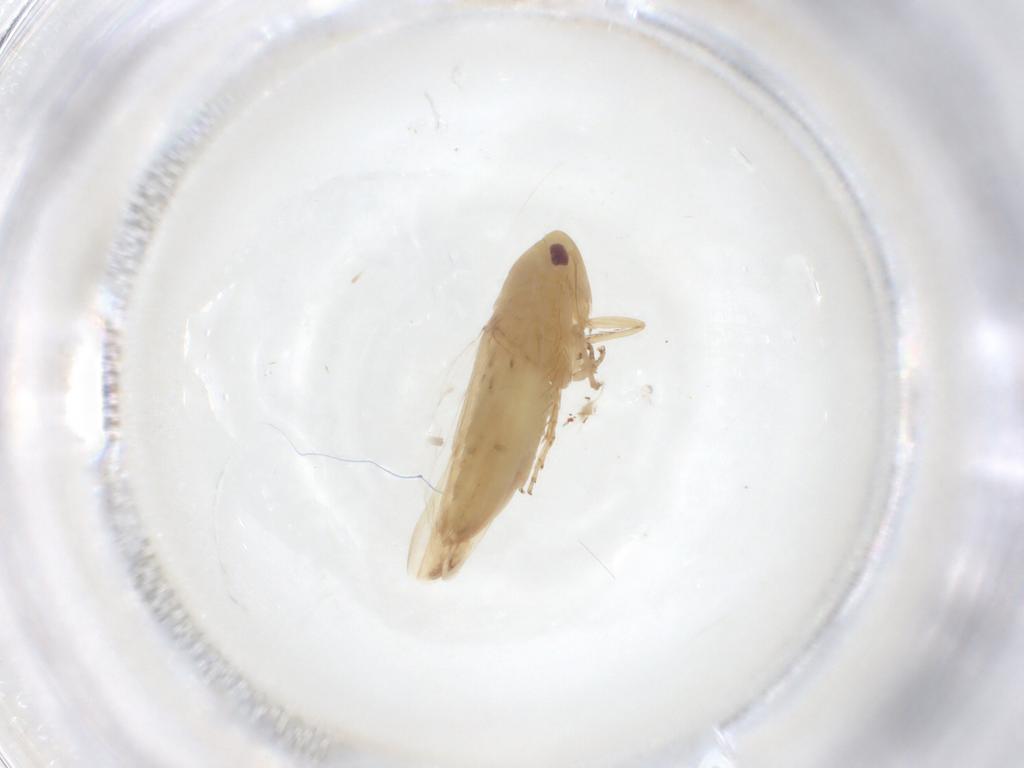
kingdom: Animalia
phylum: Arthropoda
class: Insecta
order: Hemiptera
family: Cicadellidae
